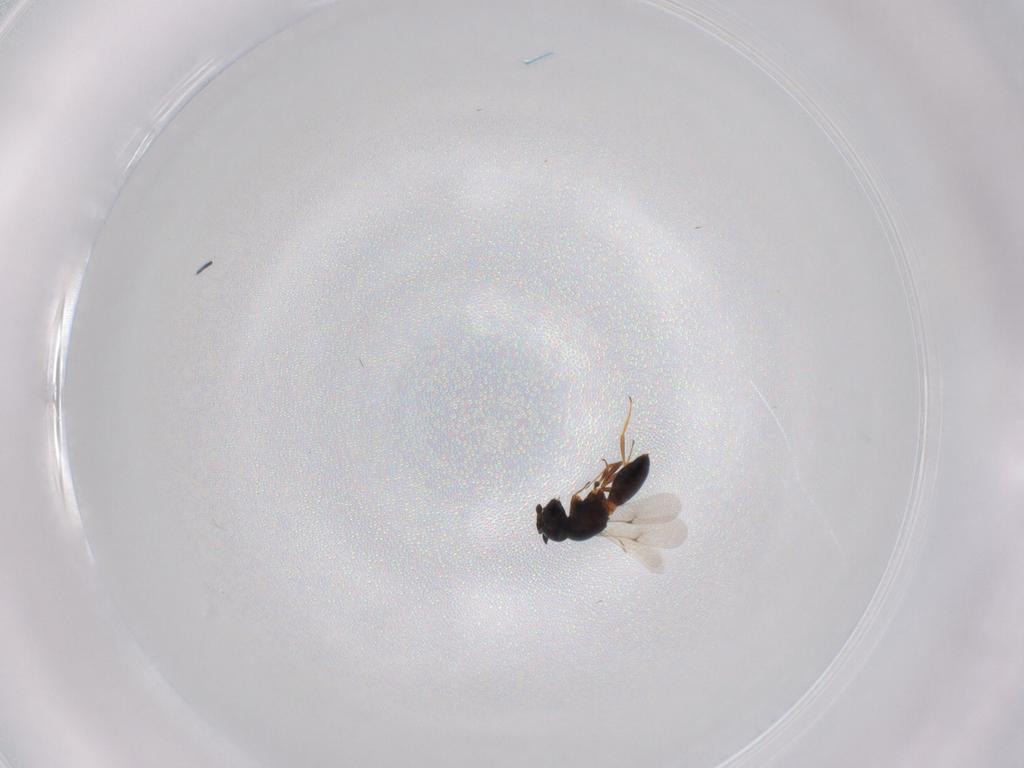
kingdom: Animalia
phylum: Arthropoda
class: Insecta
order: Hymenoptera
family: Scelionidae
